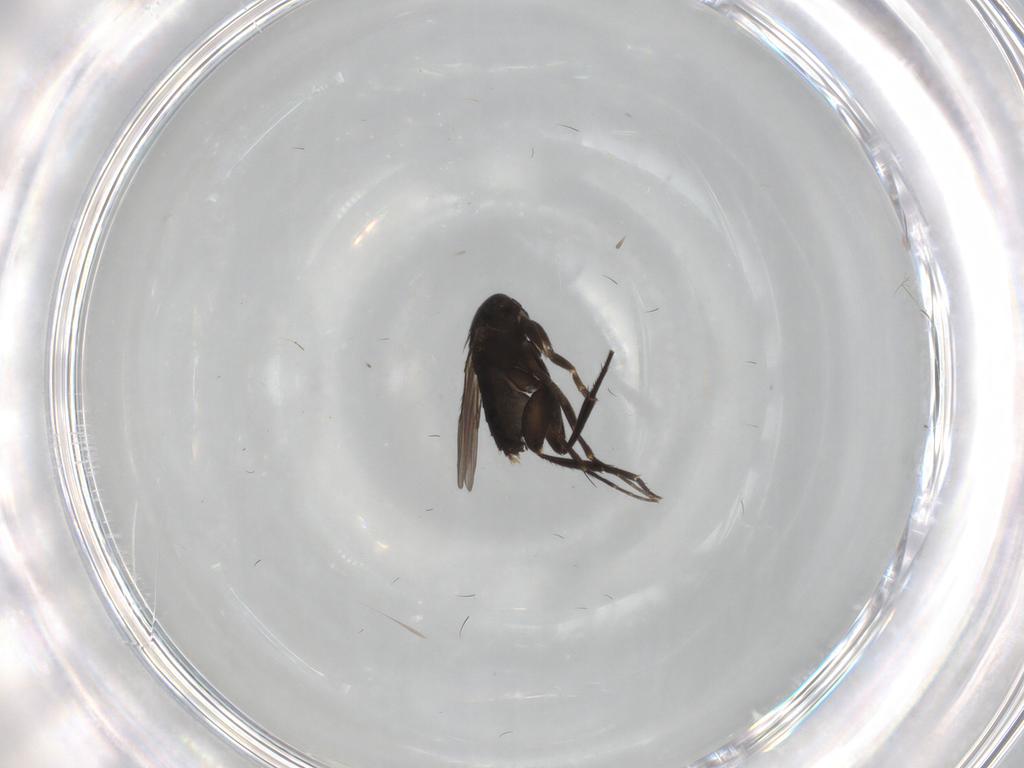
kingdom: Animalia
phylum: Arthropoda
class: Insecta
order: Diptera
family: Phoridae
